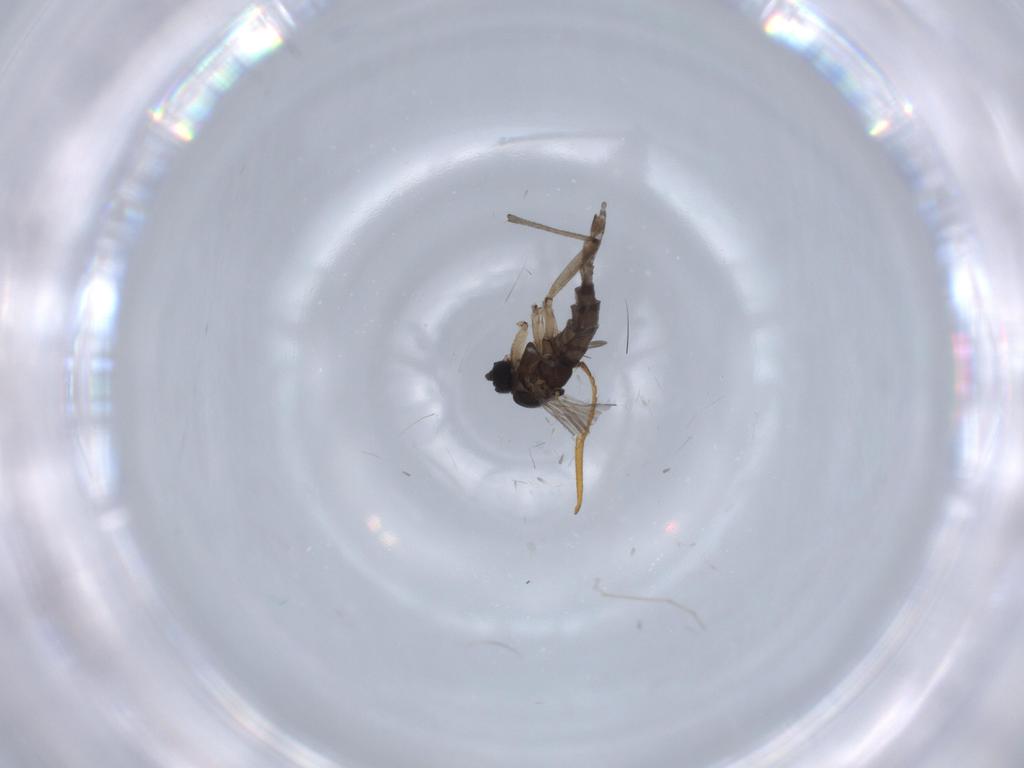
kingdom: Animalia
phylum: Arthropoda
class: Insecta
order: Diptera
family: Sciaridae
